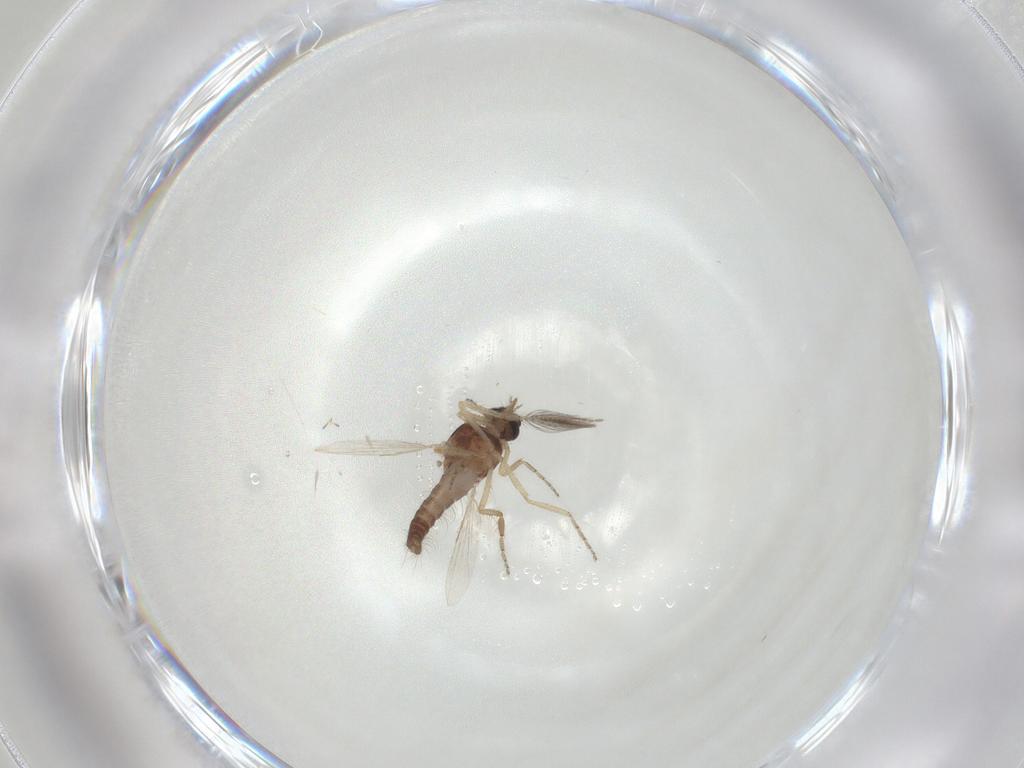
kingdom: Animalia
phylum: Arthropoda
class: Insecta
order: Diptera
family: Ceratopogonidae
